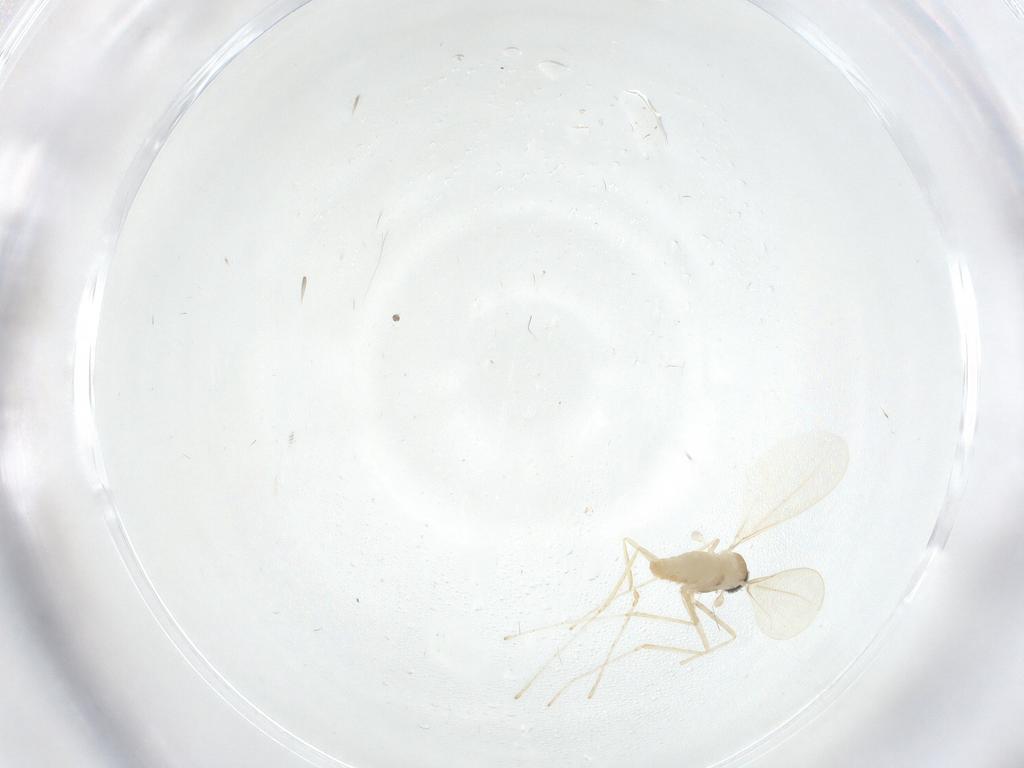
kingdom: Animalia
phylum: Arthropoda
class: Insecta
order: Diptera
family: Cecidomyiidae
